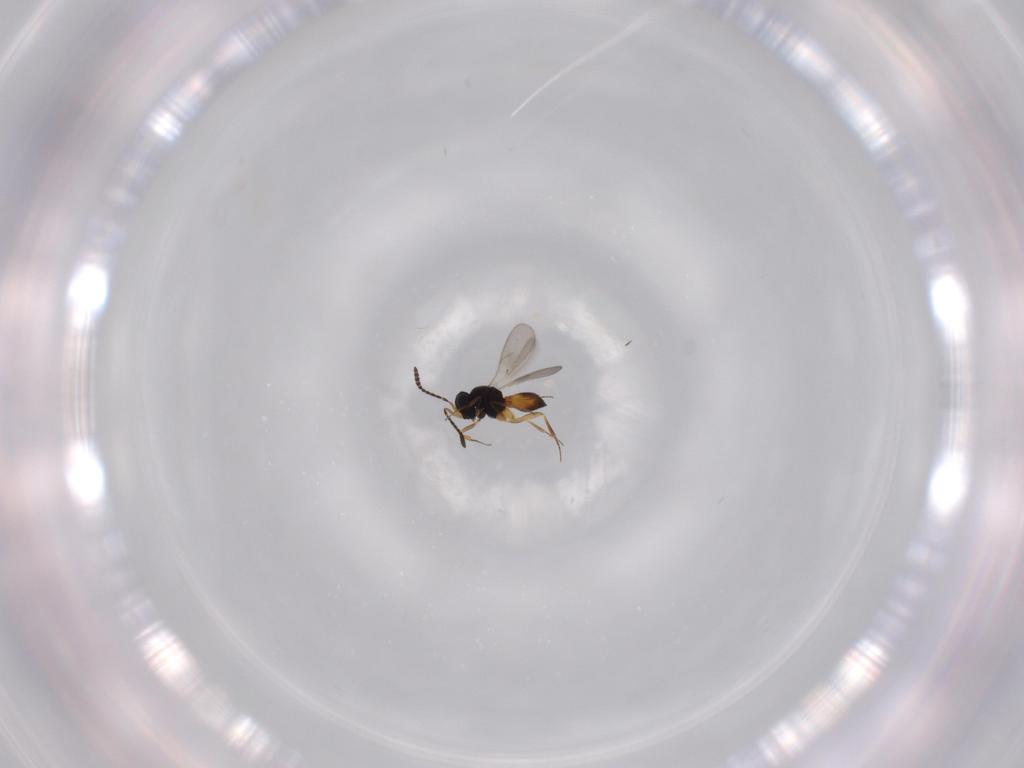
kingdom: Animalia
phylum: Arthropoda
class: Insecta
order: Hymenoptera
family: Scelionidae
